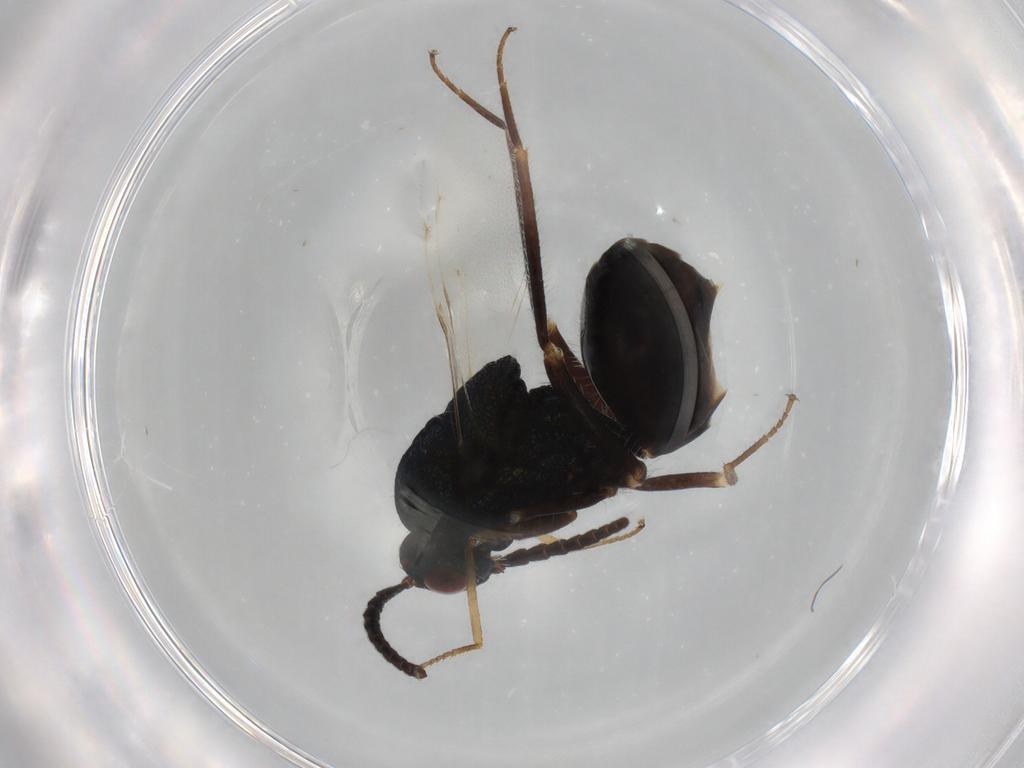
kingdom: Animalia
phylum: Arthropoda
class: Insecta
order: Hymenoptera
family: Eucharitidae
